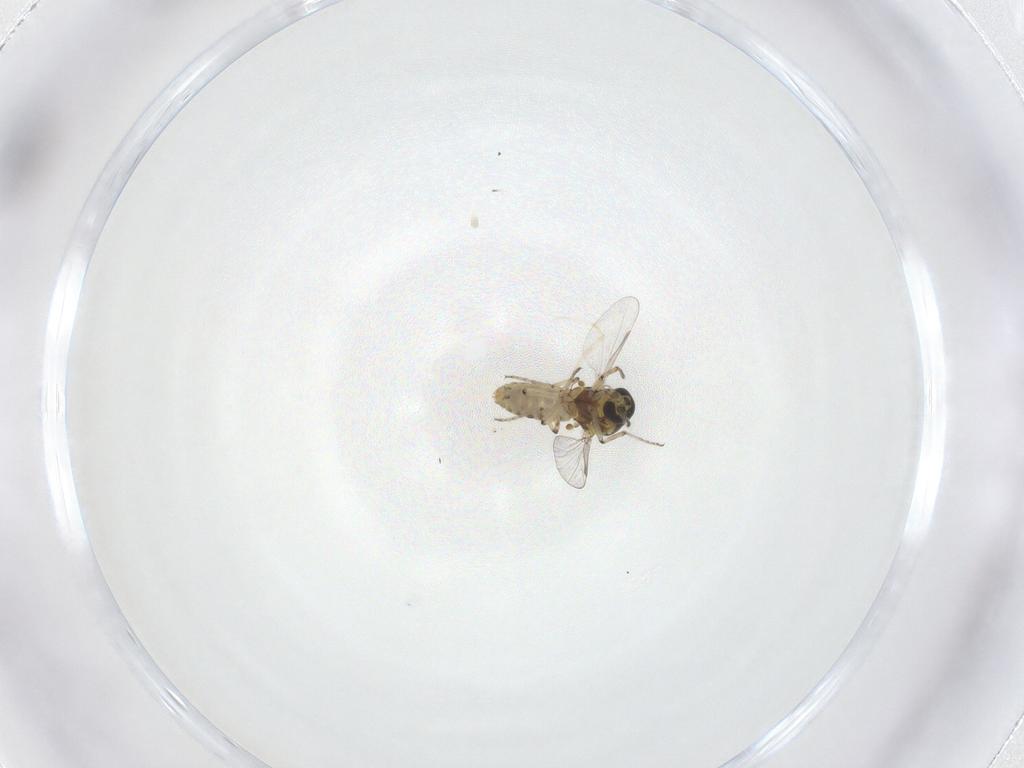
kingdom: Animalia
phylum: Arthropoda
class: Insecta
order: Diptera
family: Ceratopogonidae
